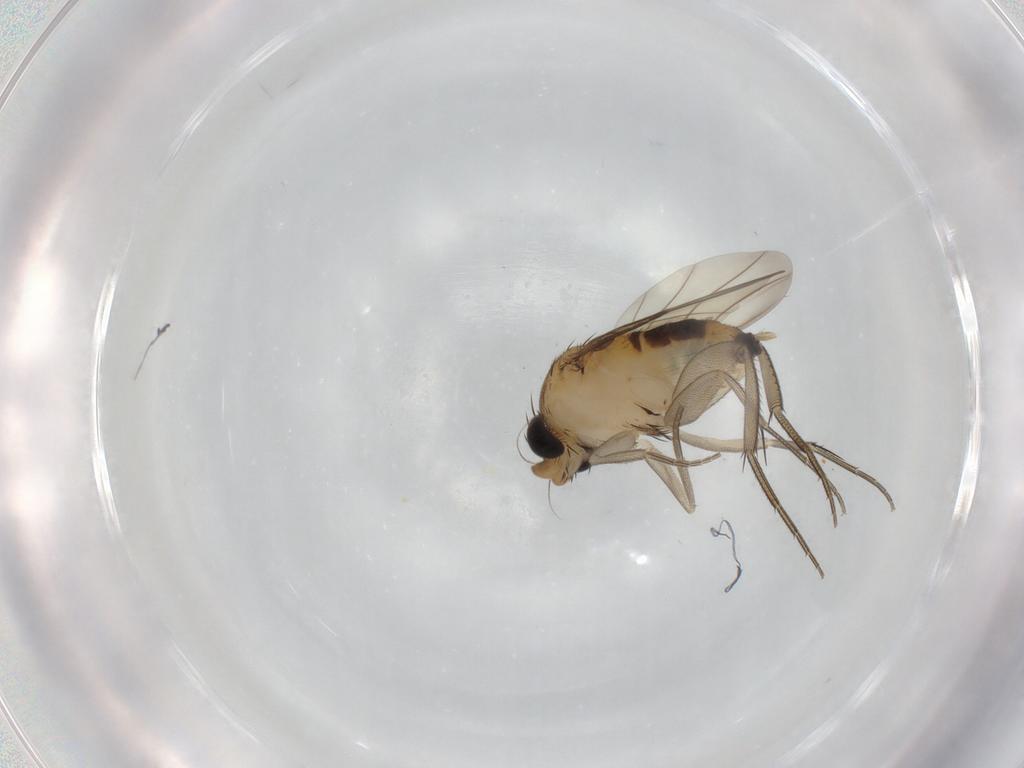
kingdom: Animalia
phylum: Arthropoda
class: Insecta
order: Diptera
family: Phoridae
